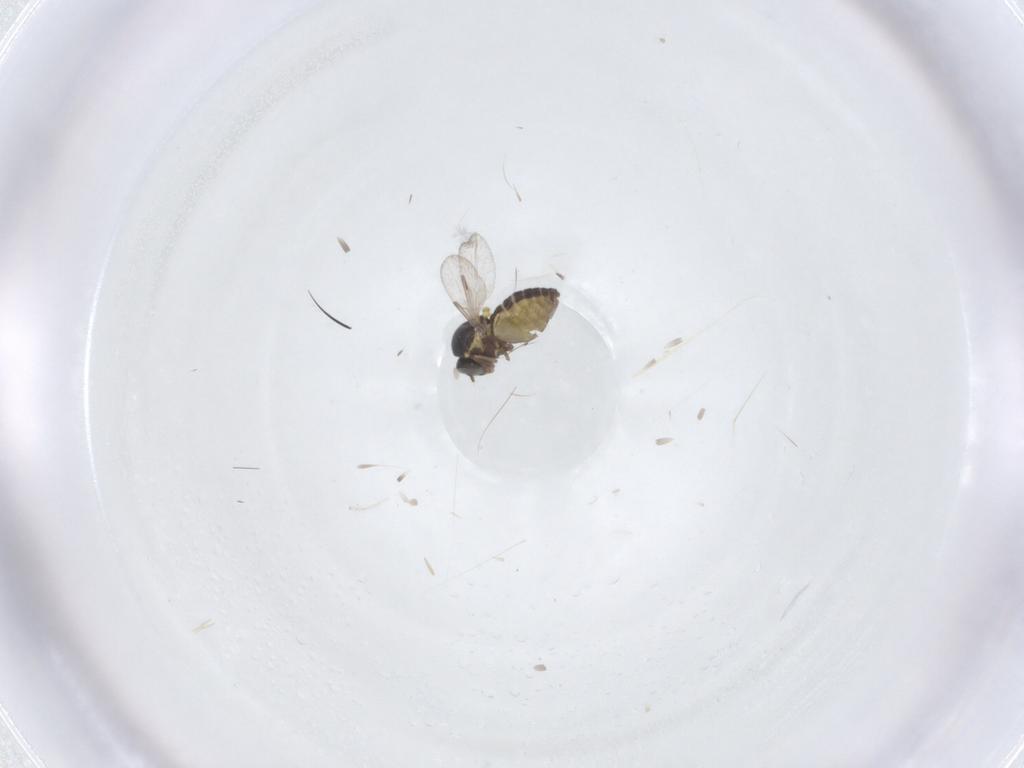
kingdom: Animalia
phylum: Arthropoda
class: Insecta
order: Diptera
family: Ceratopogonidae
